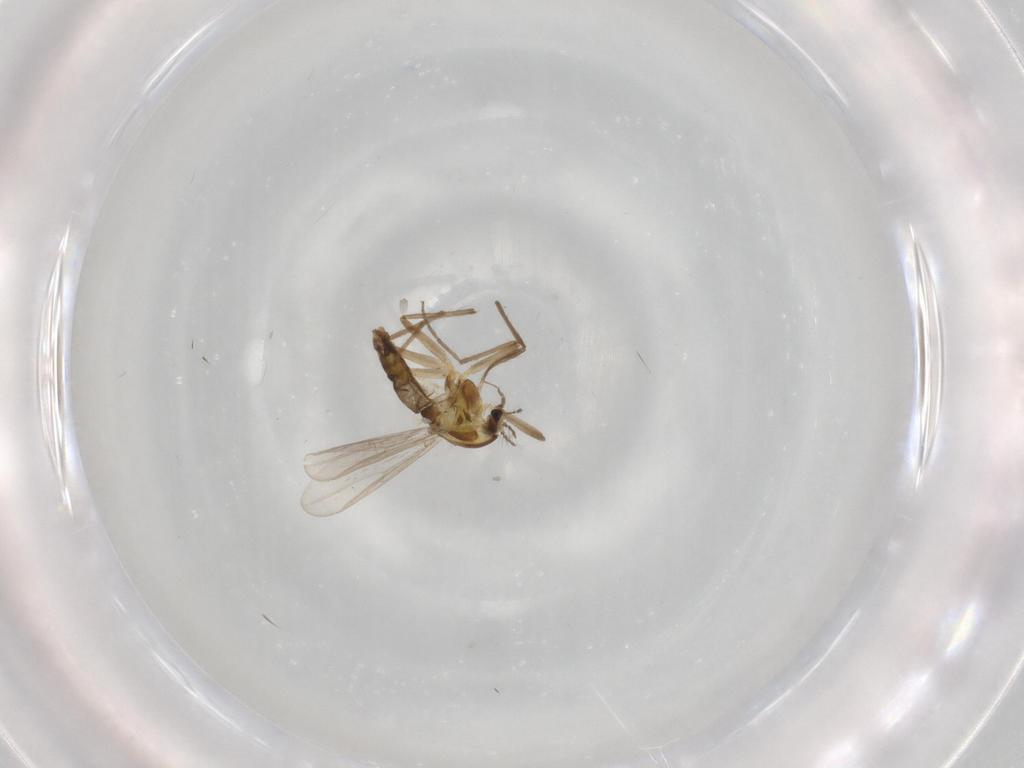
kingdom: Animalia
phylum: Arthropoda
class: Insecta
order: Diptera
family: Chironomidae
